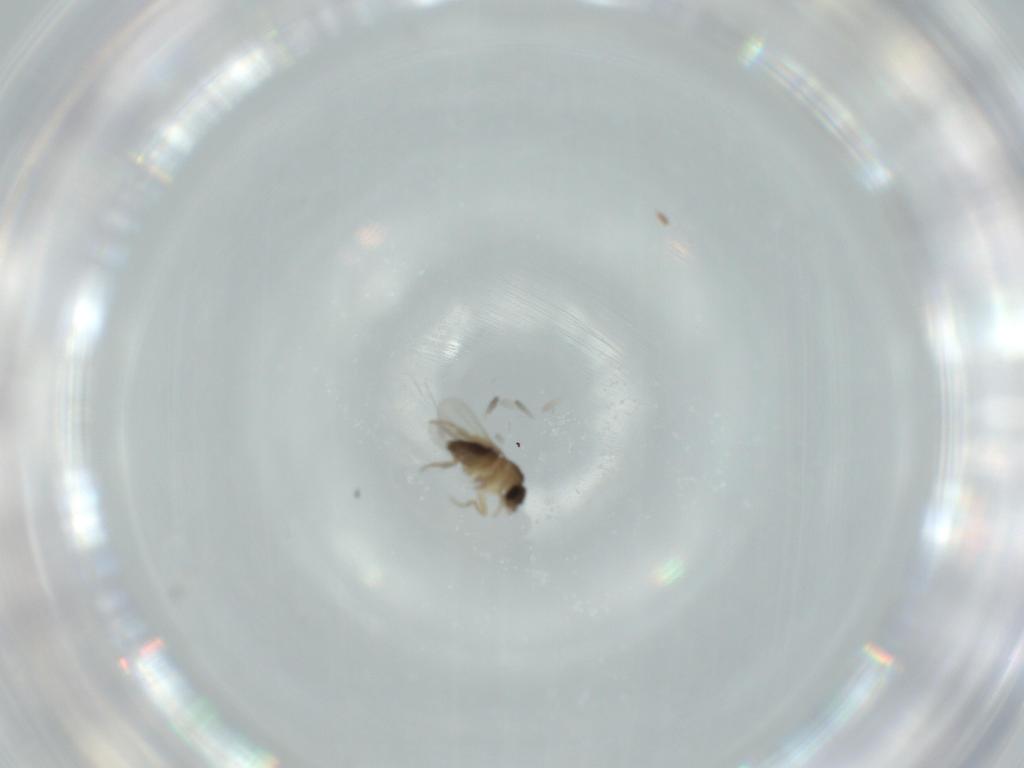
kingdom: Animalia
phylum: Arthropoda
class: Insecta
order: Diptera
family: Phoridae
